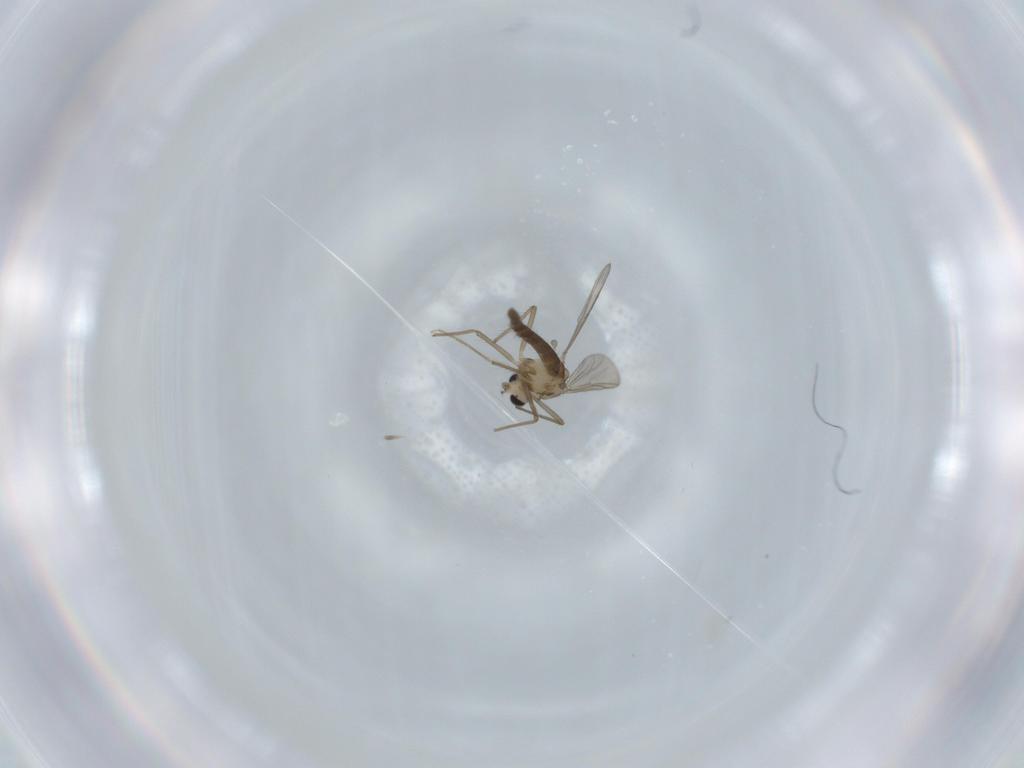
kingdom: Animalia
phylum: Arthropoda
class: Insecta
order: Diptera
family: Chironomidae
